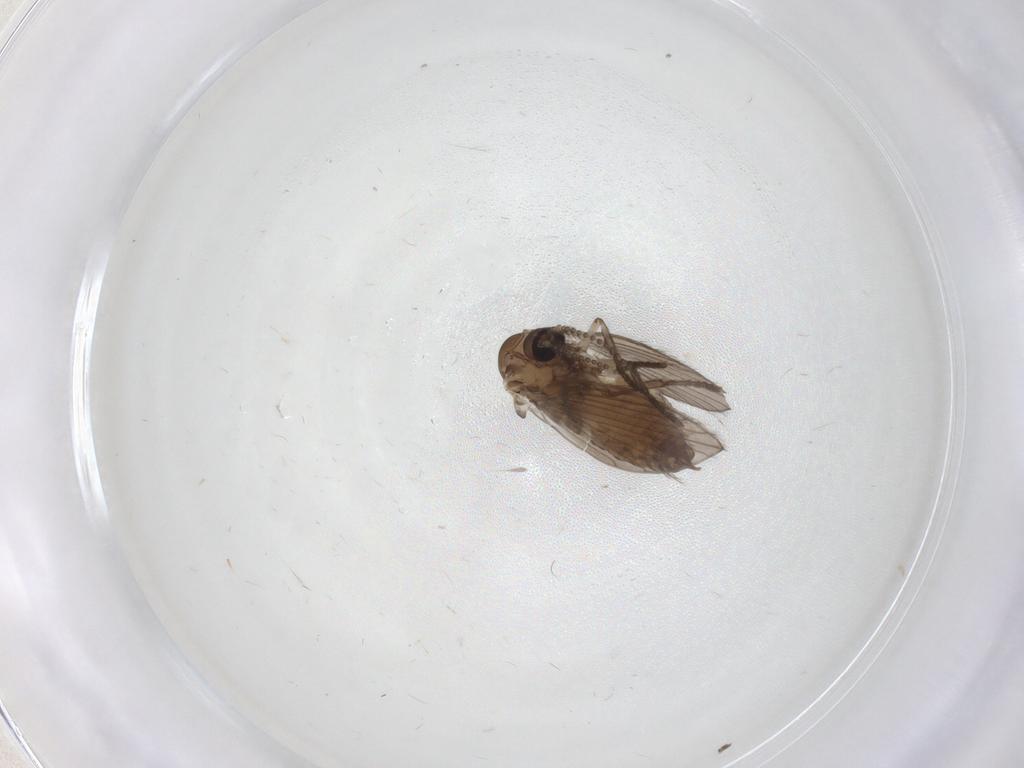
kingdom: Animalia
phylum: Arthropoda
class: Insecta
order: Diptera
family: Psychodidae
